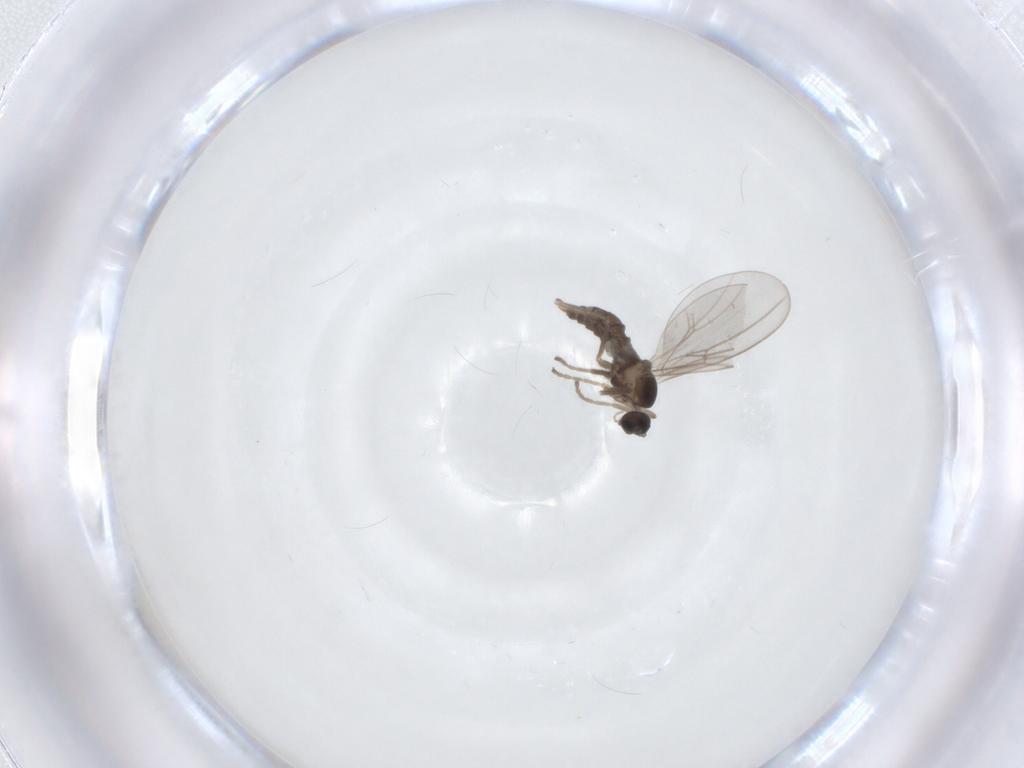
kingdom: Animalia
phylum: Arthropoda
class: Insecta
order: Diptera
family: Cecidomyiidae
